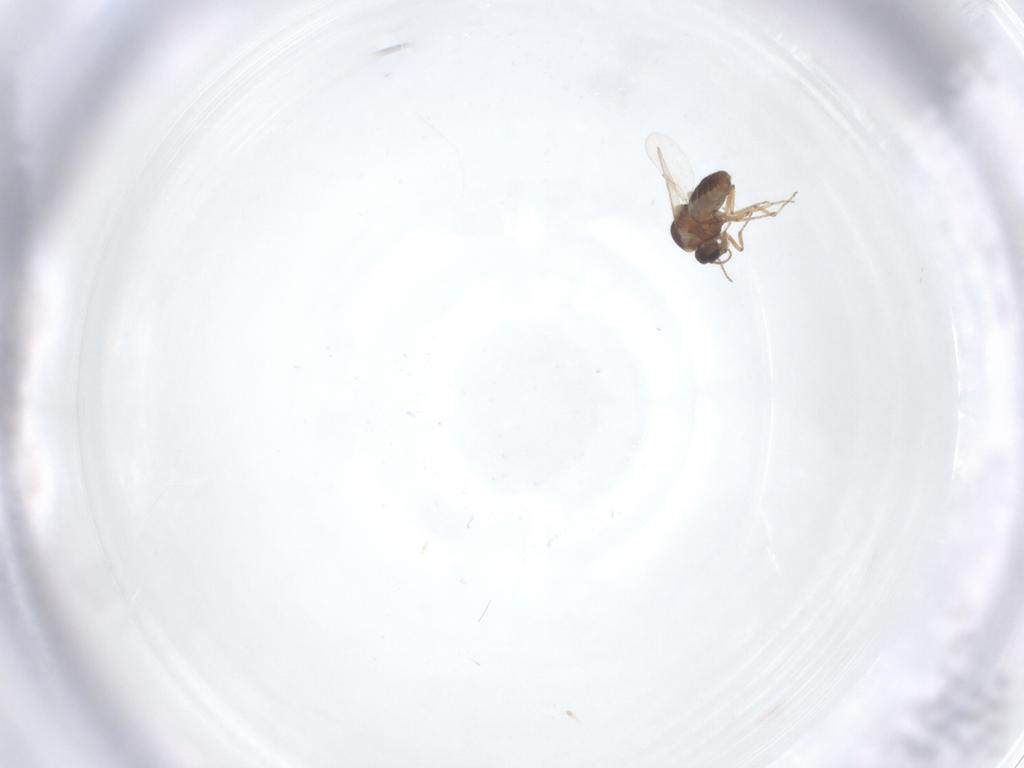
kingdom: Animalia
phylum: Arthropoda
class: Insecta
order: Diptera
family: Ceratopogonidae
